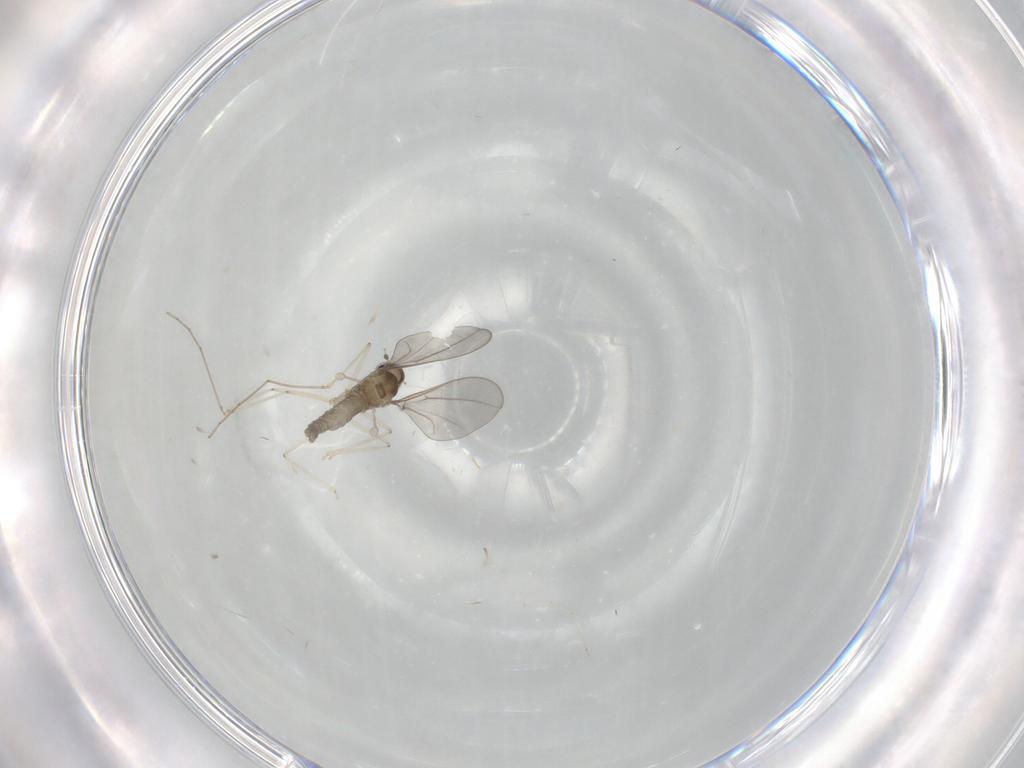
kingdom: Animalia
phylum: Arthropoda
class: Insecta
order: Diptera
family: Cecidomyiidae
